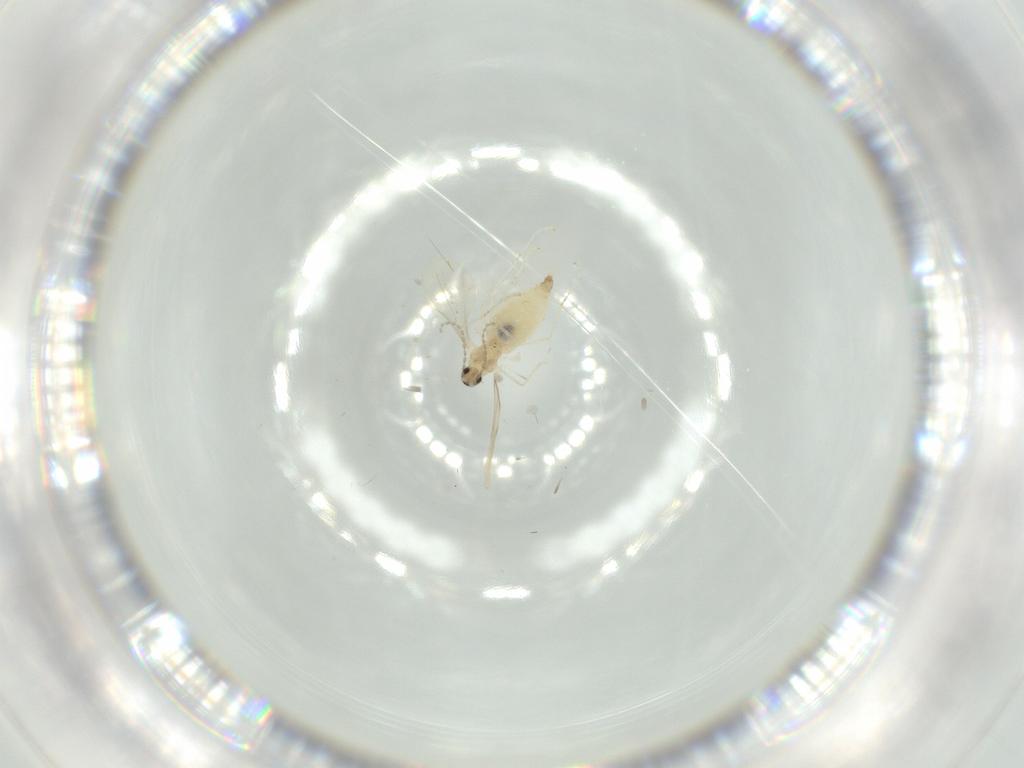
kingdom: Animalia
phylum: Arthropoda
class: Insecta
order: Diptera
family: Cecidomyiidae
